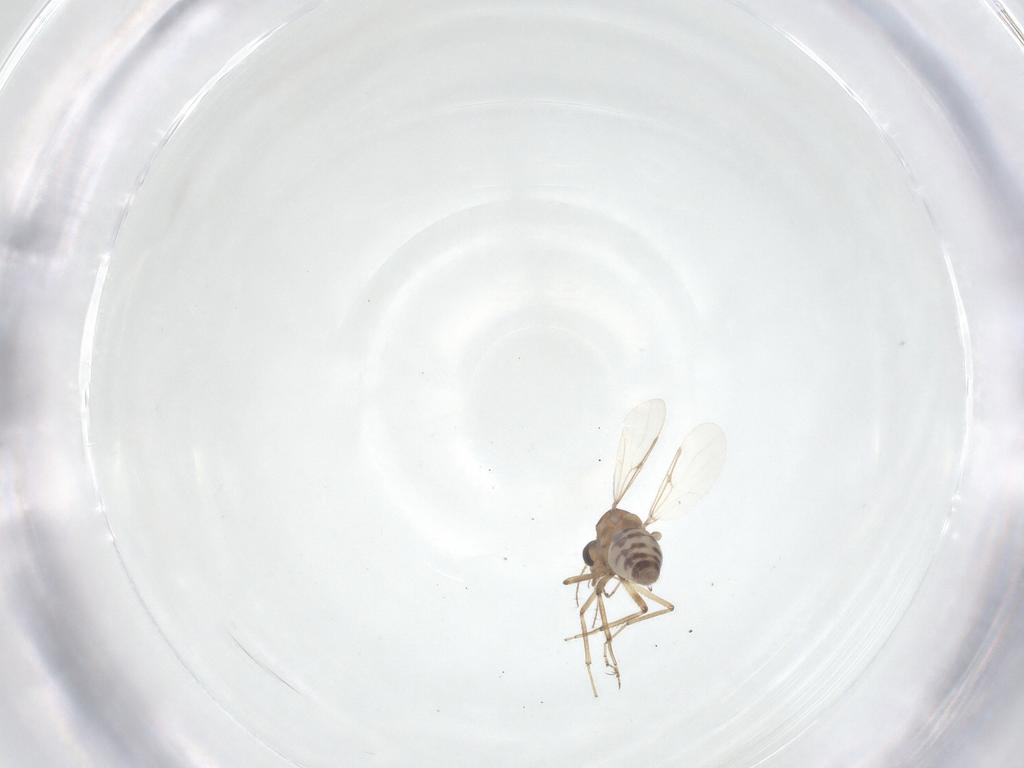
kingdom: Animalia
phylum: Arthropoda
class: Insecta
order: Diptera
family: Ceratopogonidae
